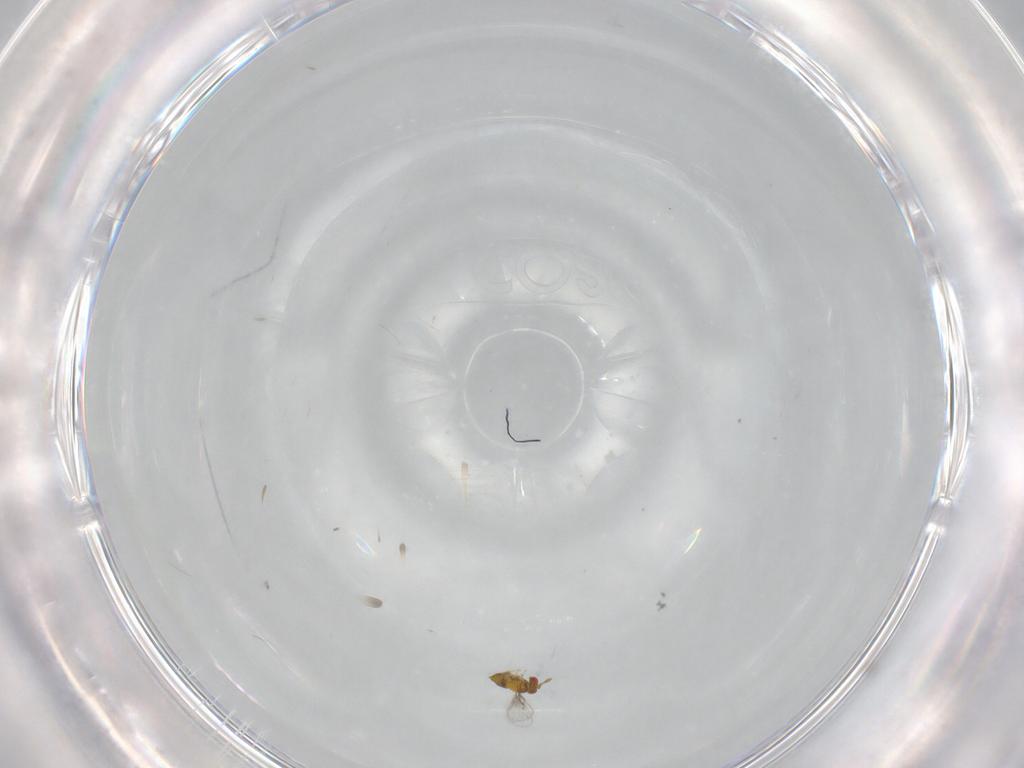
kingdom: Animalia
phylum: Arthropoda
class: Insecta
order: Hymenoptera
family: Trichogrammatidae
